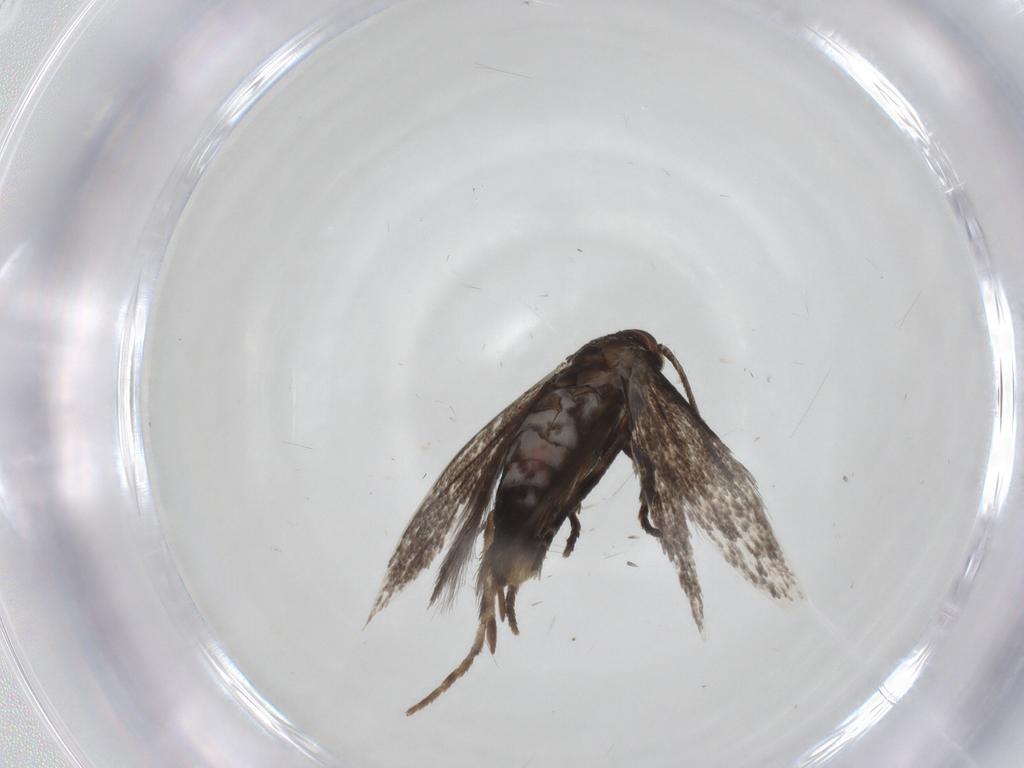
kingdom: Animalia
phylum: Arthropoda
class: Insecta
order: Lepidoptera
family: Elachistidae
